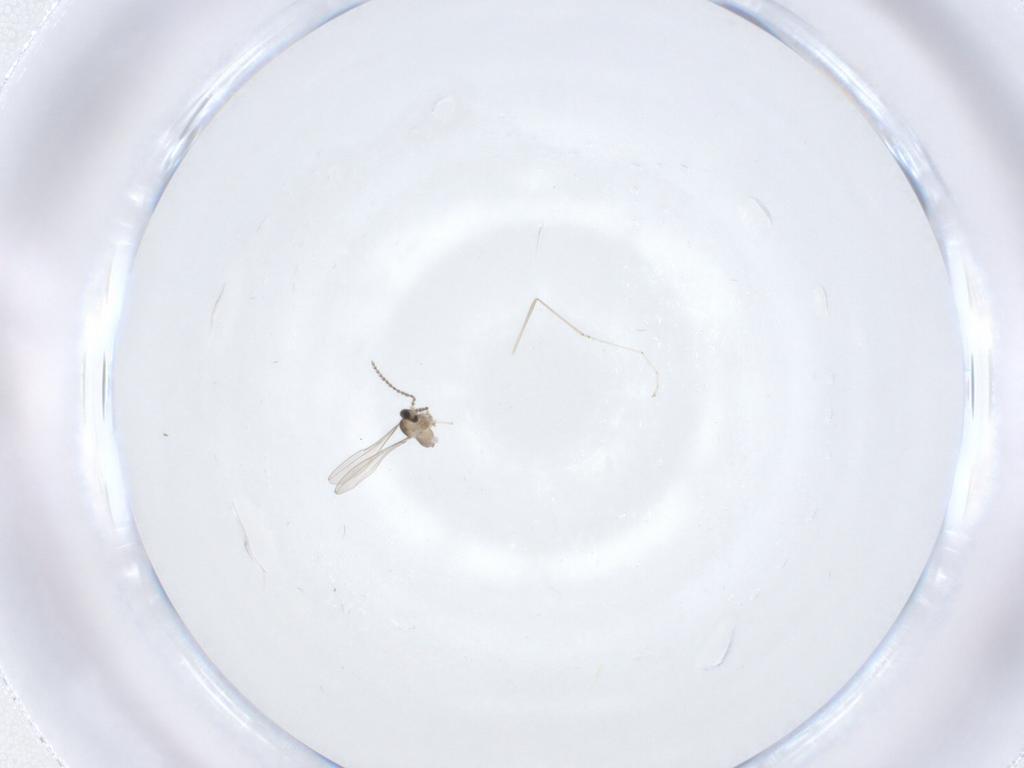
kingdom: Animalia
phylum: Arthropoda
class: Insecta
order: Diptera
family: Cecidomyiidae
